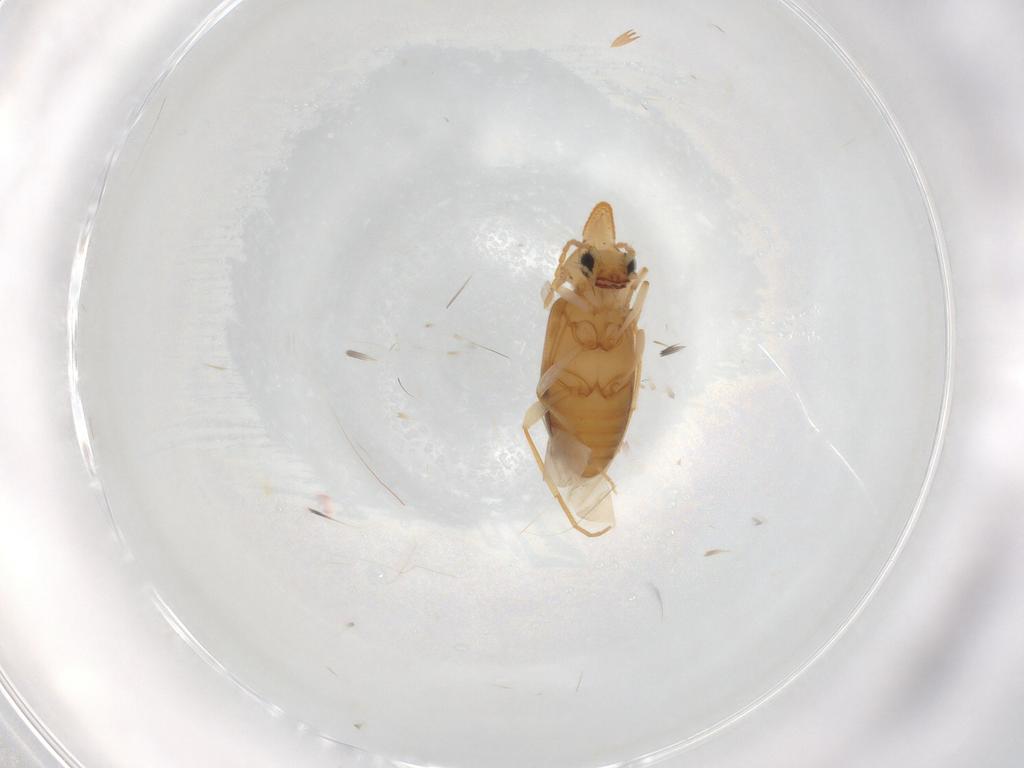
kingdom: Animalia
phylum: Arthropoda
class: Insecta
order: Coleoptera
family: Anthicidae
